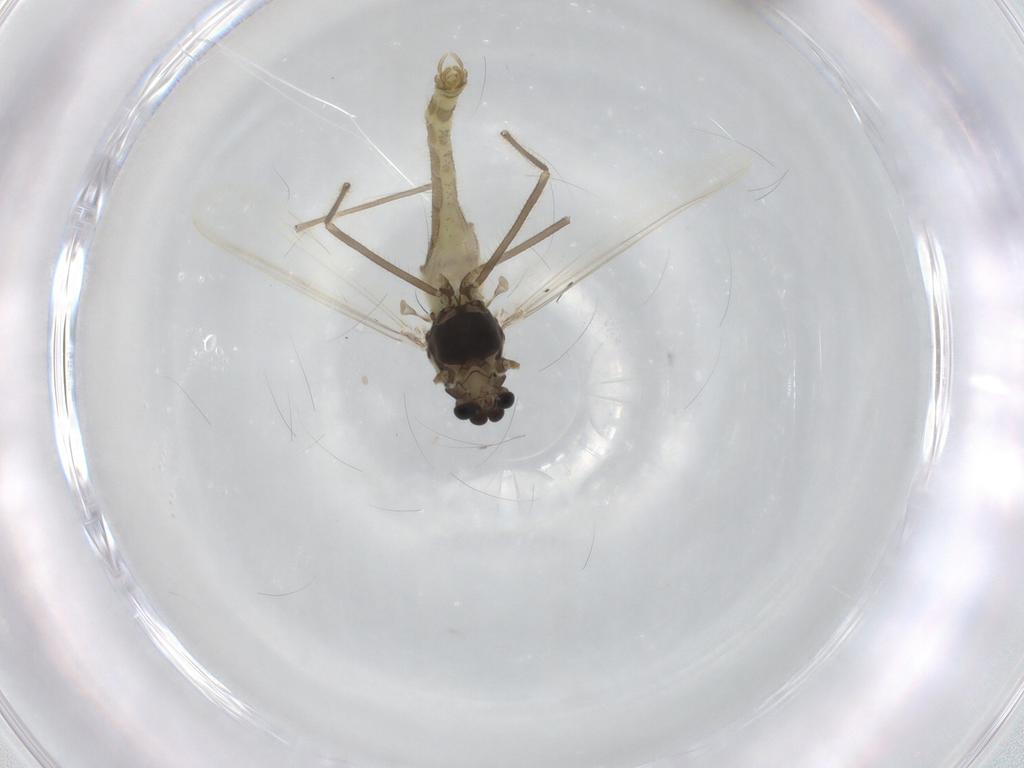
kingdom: Animalia
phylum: Arthropoda
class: Insecta
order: Diptera
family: Chironomidae
